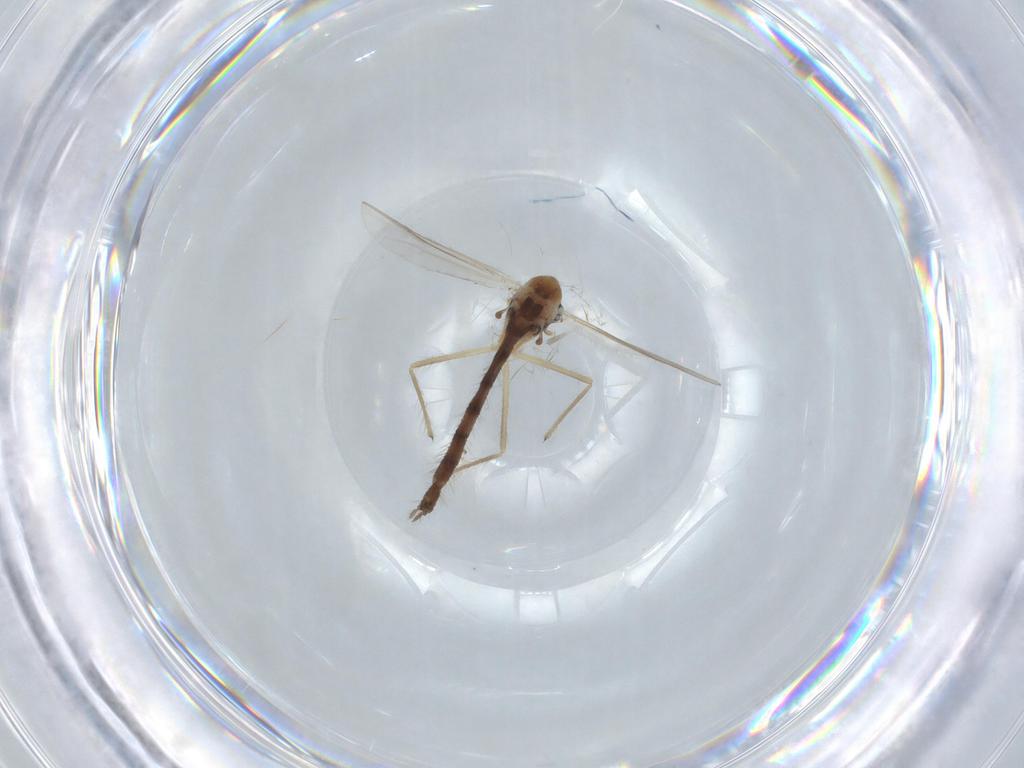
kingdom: Animalia
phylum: Arthropoda
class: Insecta
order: Diptera
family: Chironomidae
